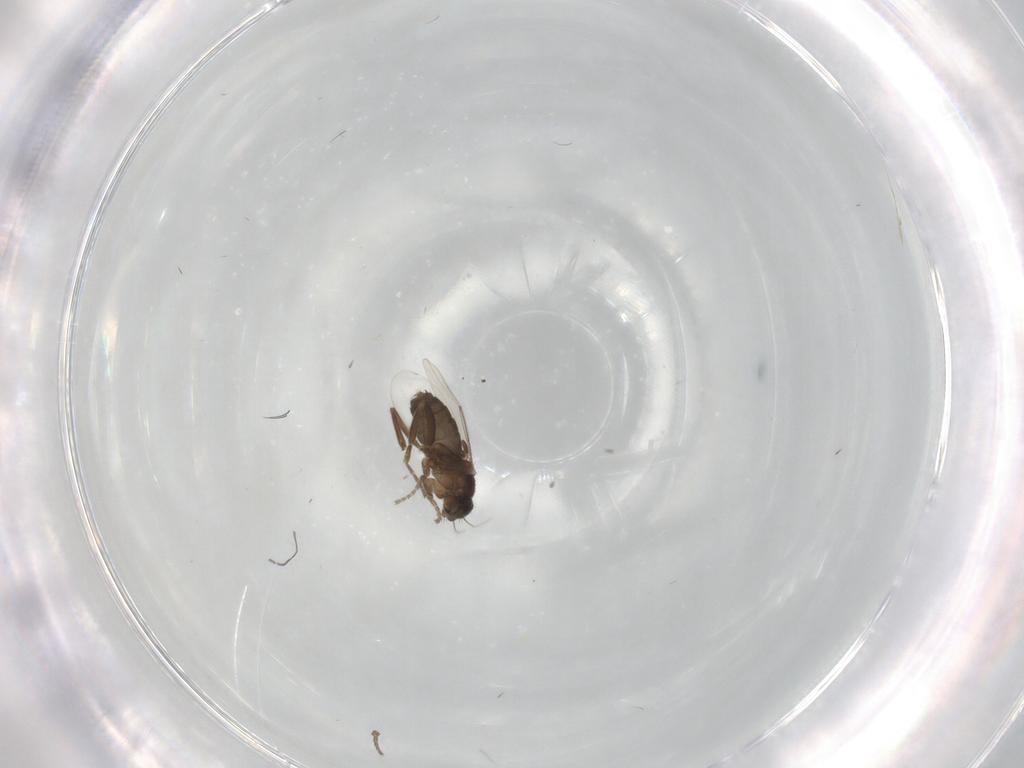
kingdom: Animalia
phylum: Arthropoda
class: Insecta
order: Diptera
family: Phoridae
